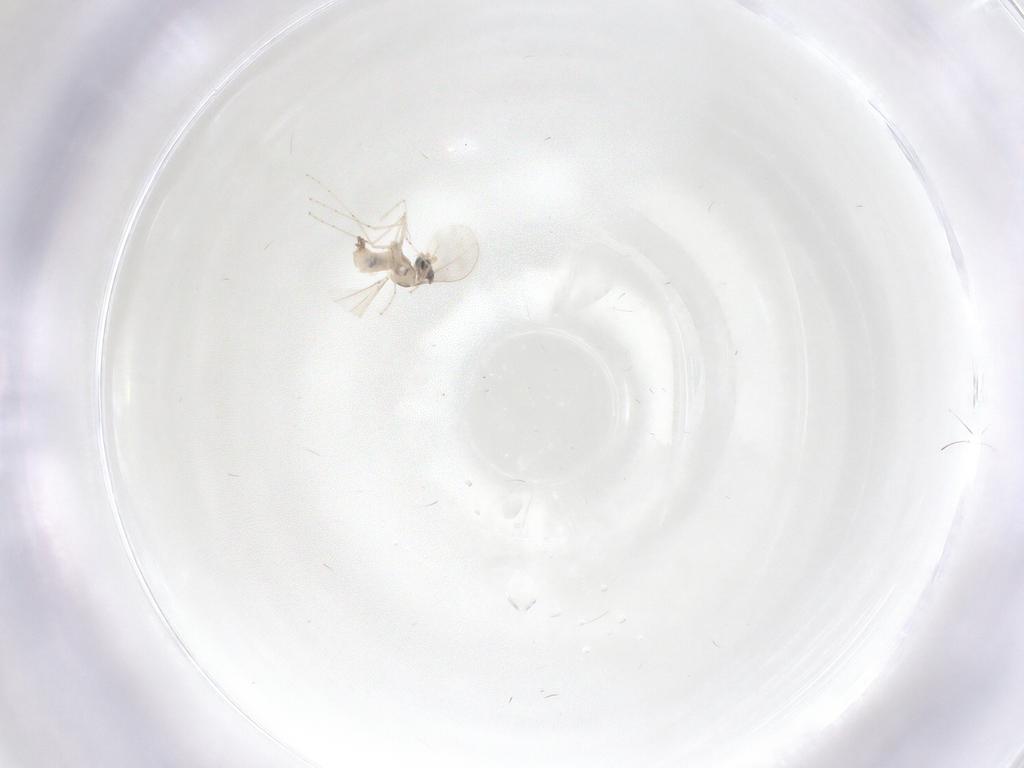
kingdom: Animalia
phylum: Arthropoda
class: Insecta
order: Diptera
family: Cecidomyiidae
